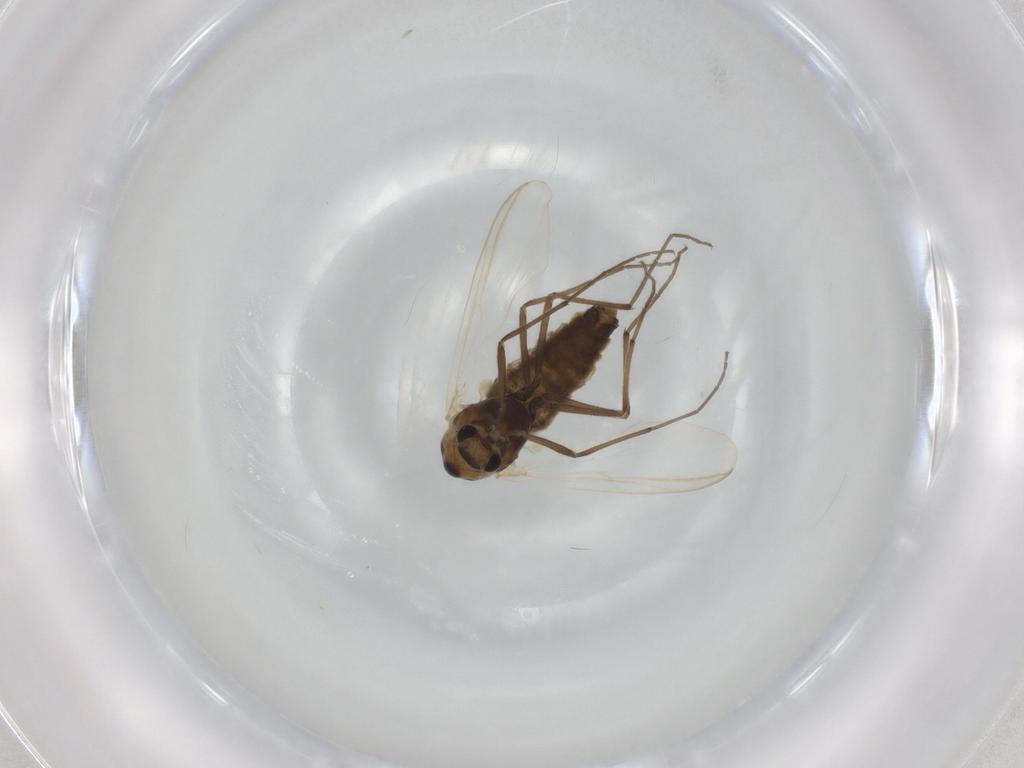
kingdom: Animalia
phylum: Arthropoda
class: Insecta
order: Diptera
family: Chironomidae
